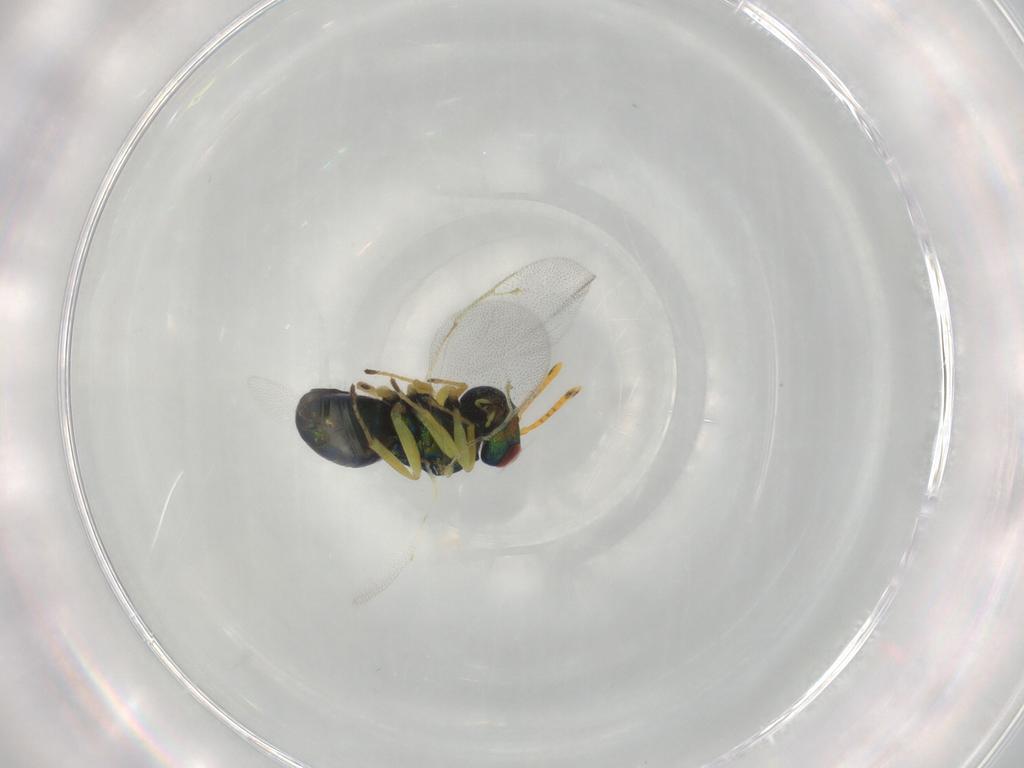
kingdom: Animalia
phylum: Arthropoda
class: Insecta
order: Hymenoptera
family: Pteromalidae
